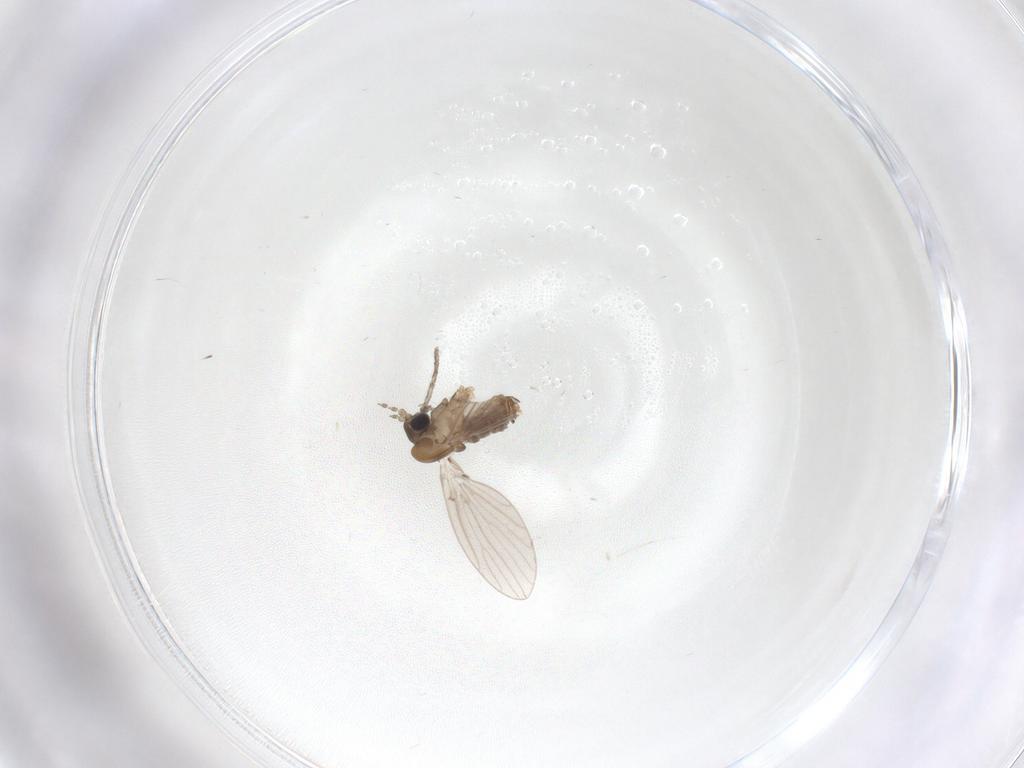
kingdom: Animalia
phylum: Arthropoda
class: Insecta
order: Diptera
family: Psychodidae
